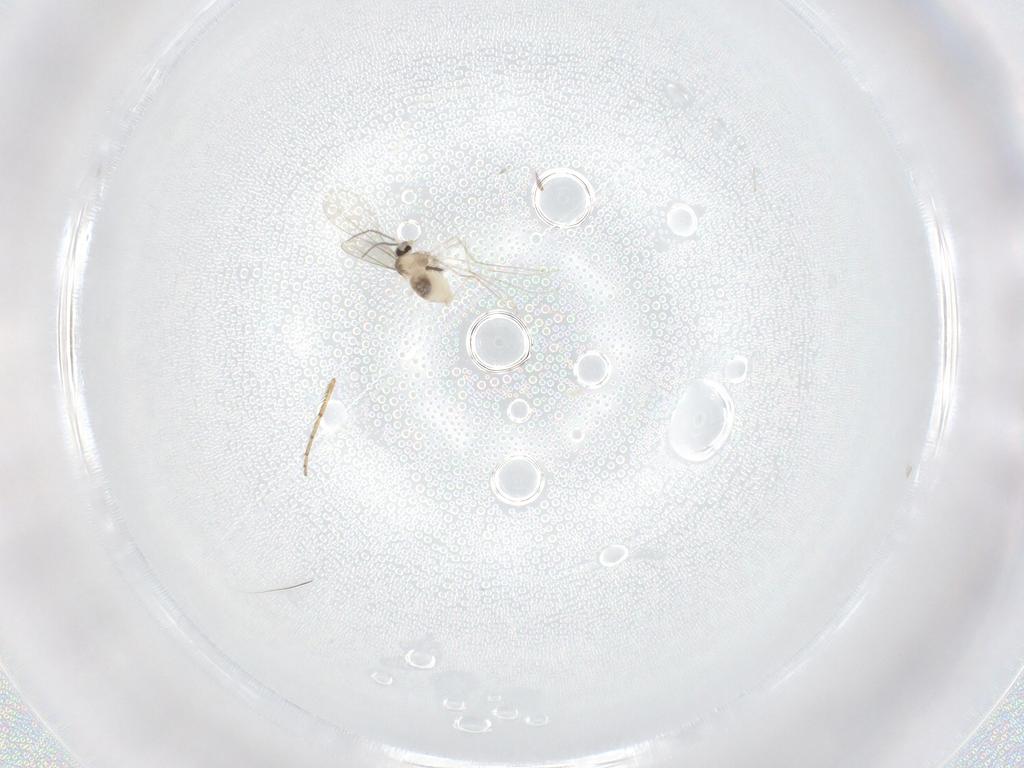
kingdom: Animalia
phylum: Arthropoda
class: Insecta
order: Diptera
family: Cecidomyiidae
